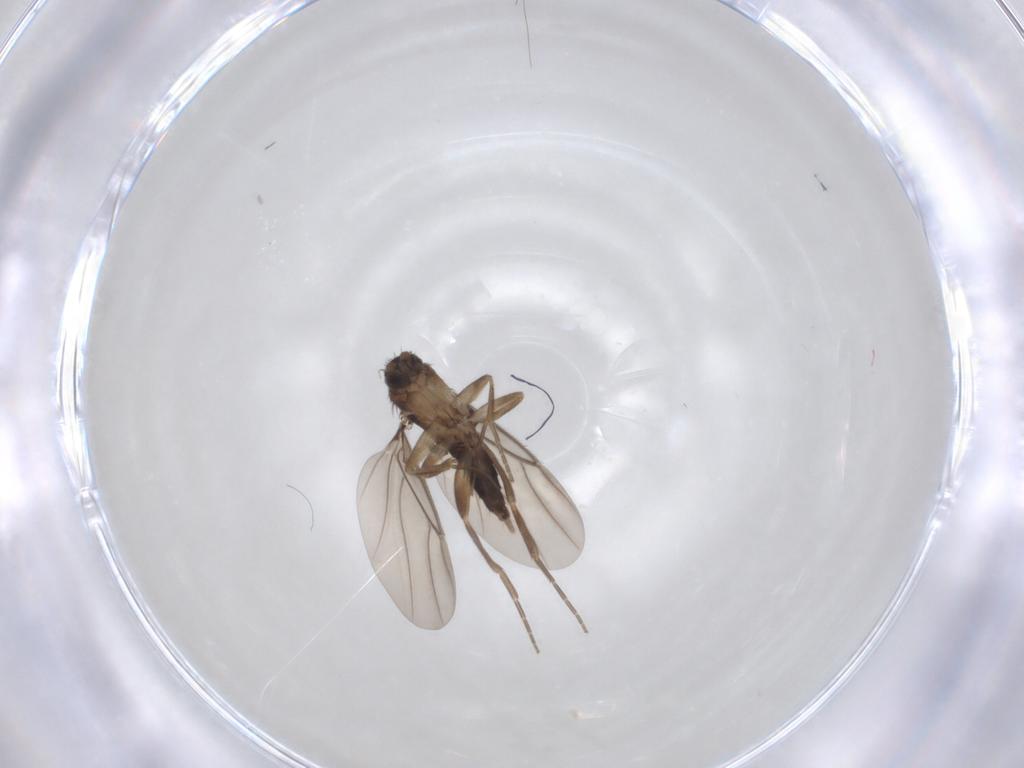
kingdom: Animalia
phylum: Arthropoda
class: Insecta
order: Diptera
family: Phoridae
